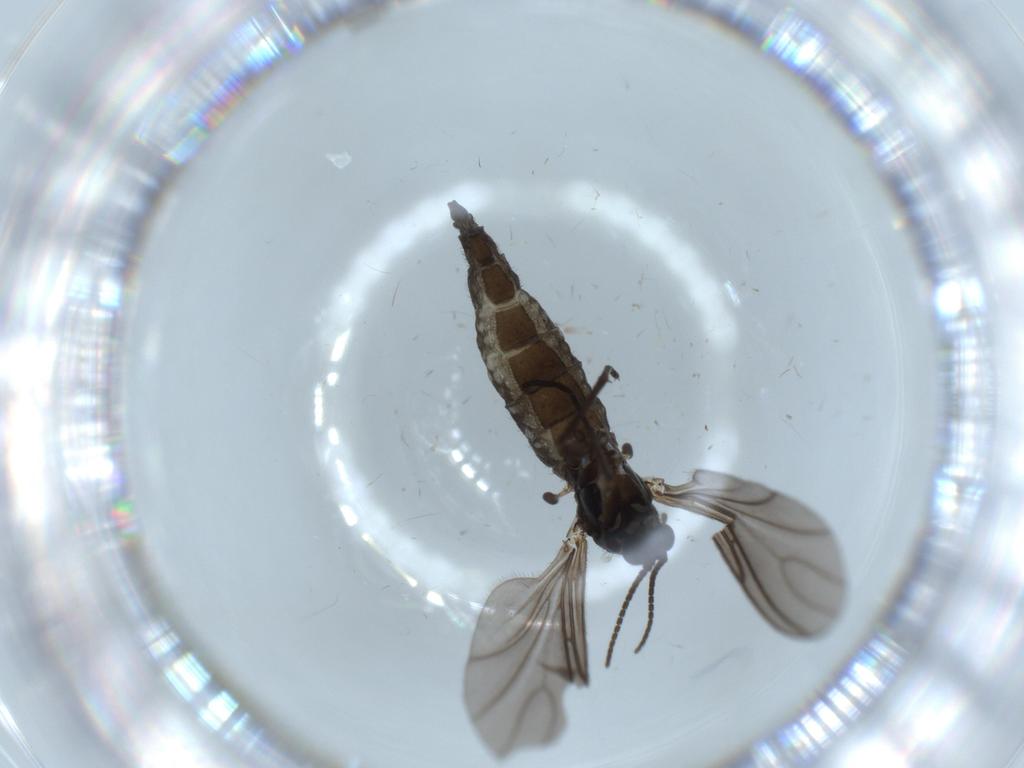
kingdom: Animalia
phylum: Arthropoda
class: Insecta
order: Diptera
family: Sciaridae
